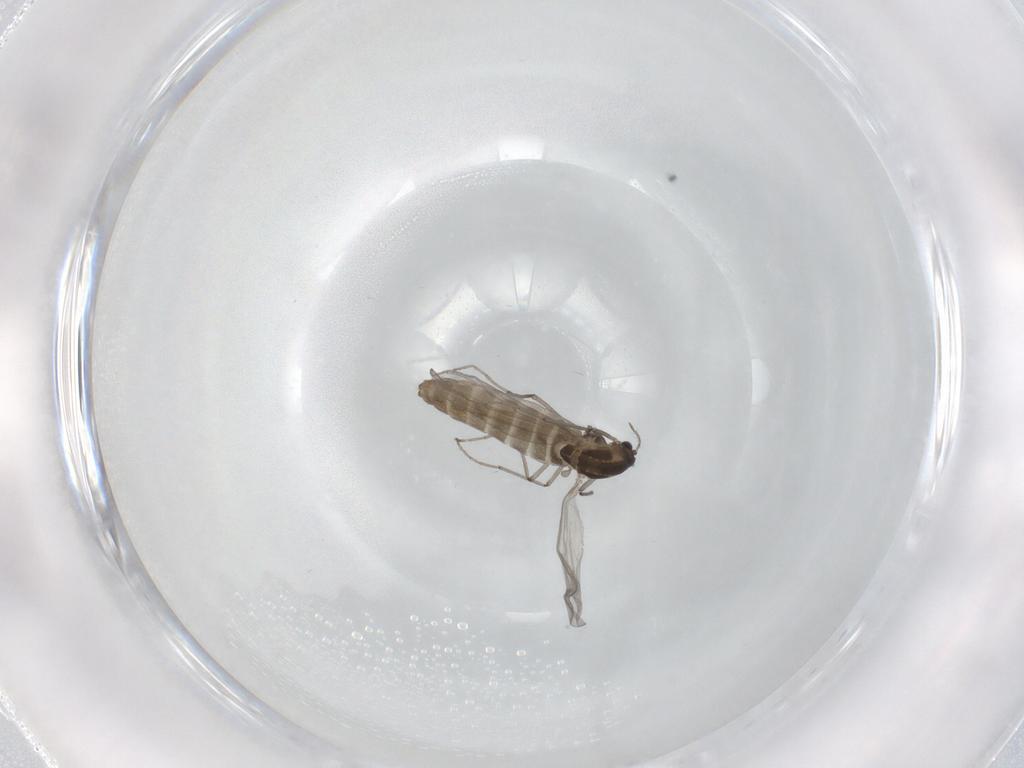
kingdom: Animalia
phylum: Arthropoda
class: Insecta
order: Diptera
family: Chironomidae
